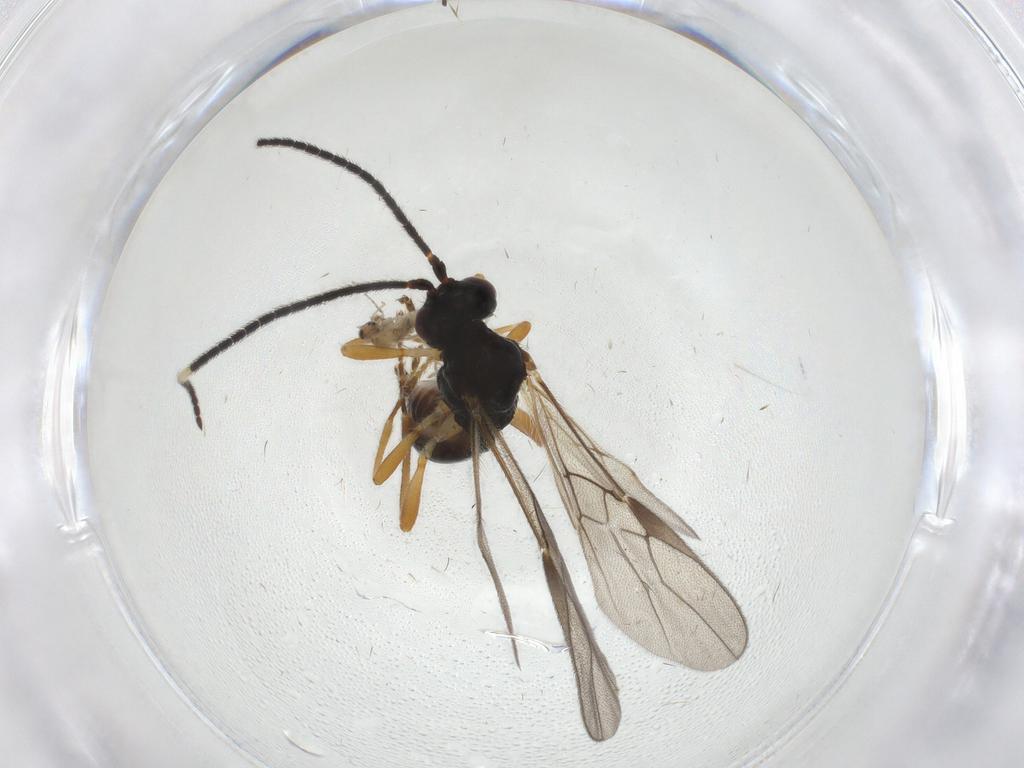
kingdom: Animalia
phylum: Arthropoda
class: Insecta
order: Diptera
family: Cecidomyiidae
